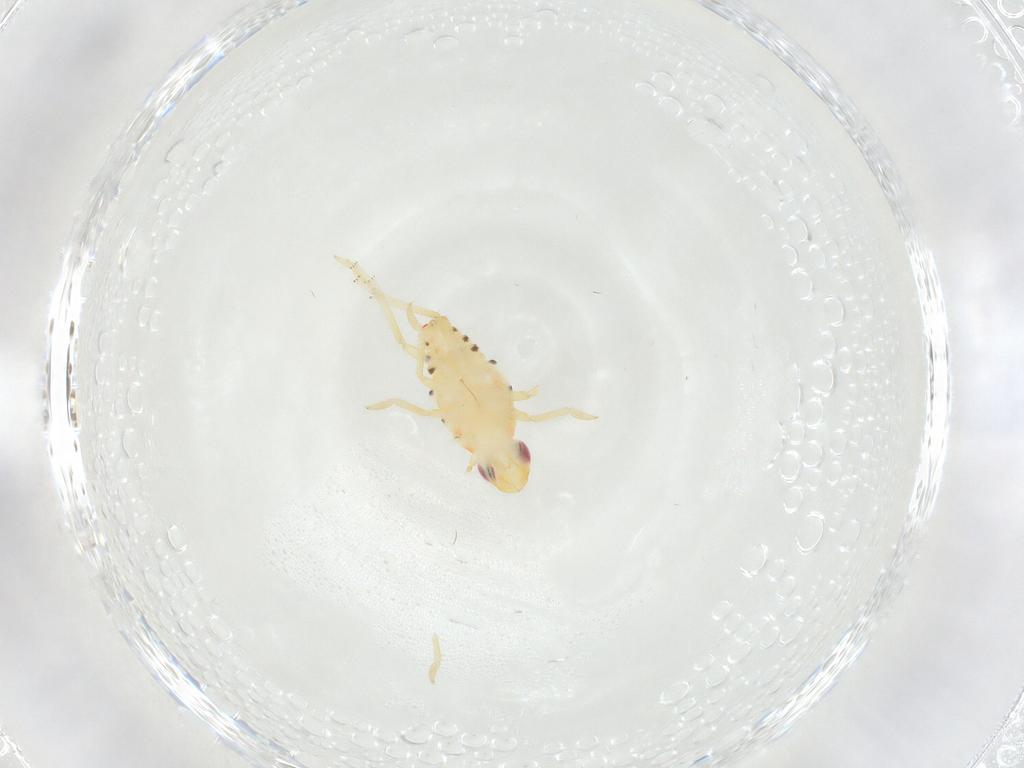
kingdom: Animalia
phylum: Arthropoda
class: Insecta
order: Hemiptera
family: Tropiduchidae
